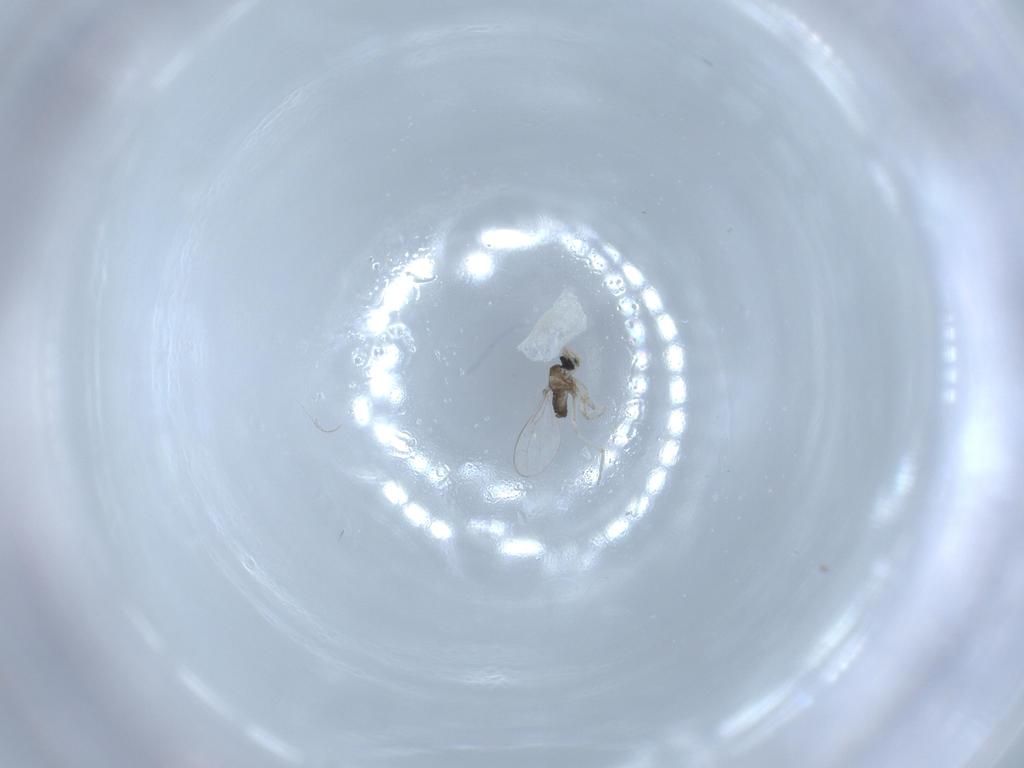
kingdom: Animalia
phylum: Arthropoda
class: Insecta
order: Diptera
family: Cecidomyiidae
